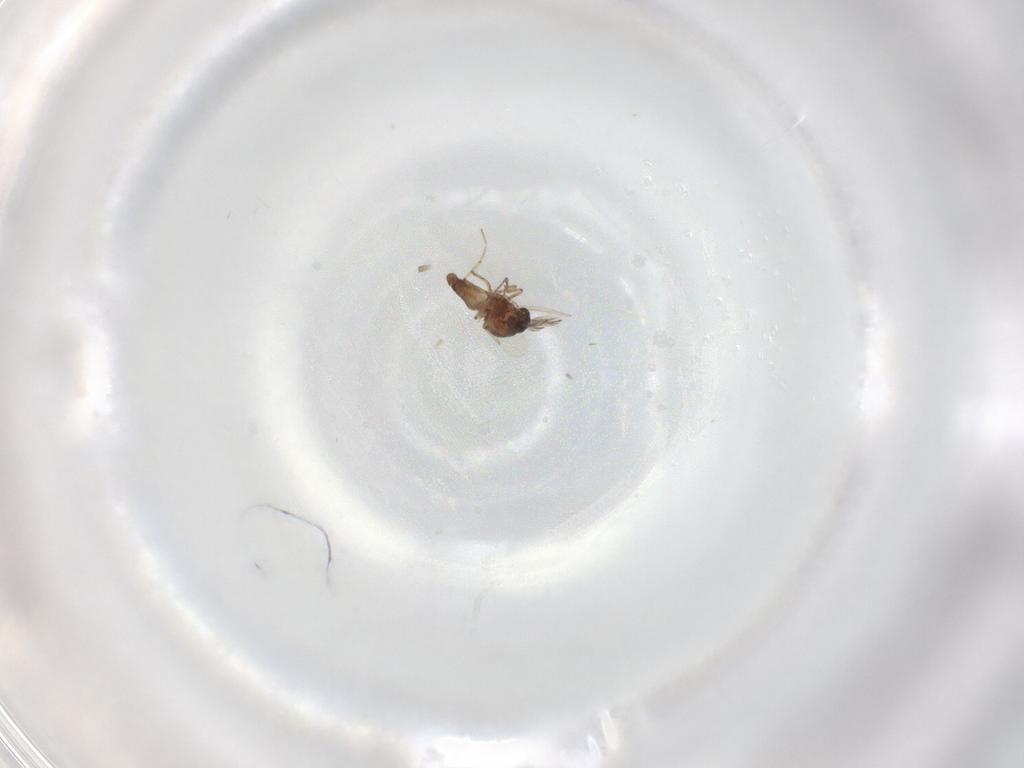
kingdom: Animalia
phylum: Arthropoda
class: Insecta
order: Diptera
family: Ceratopogonidae
